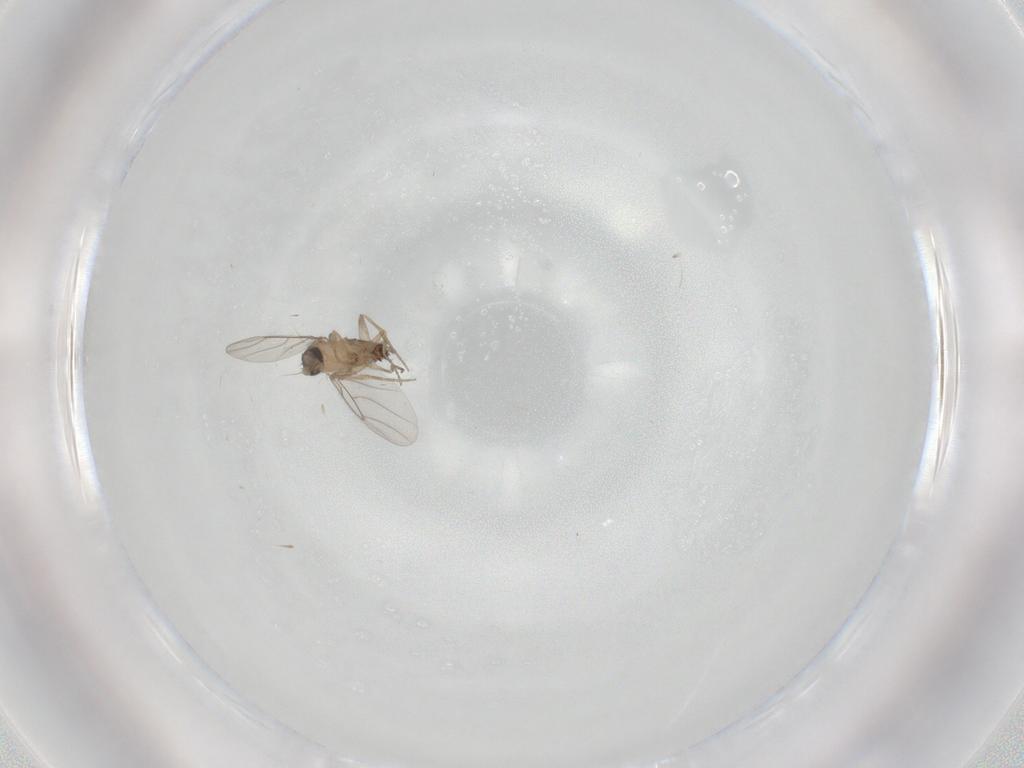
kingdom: Animalia
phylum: Arthropoda
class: Insecta
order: Diptera
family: Phoridae
